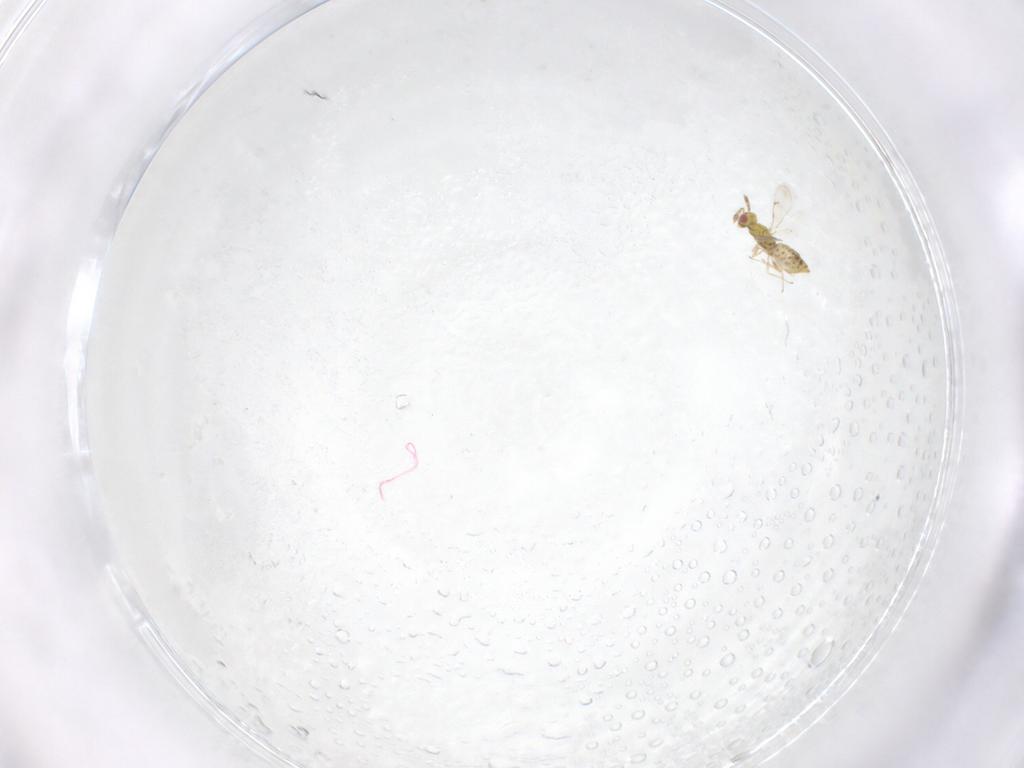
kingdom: Animalia
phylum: Arthropoda
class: Insecta
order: Hymenoptera
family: Eulophidae
